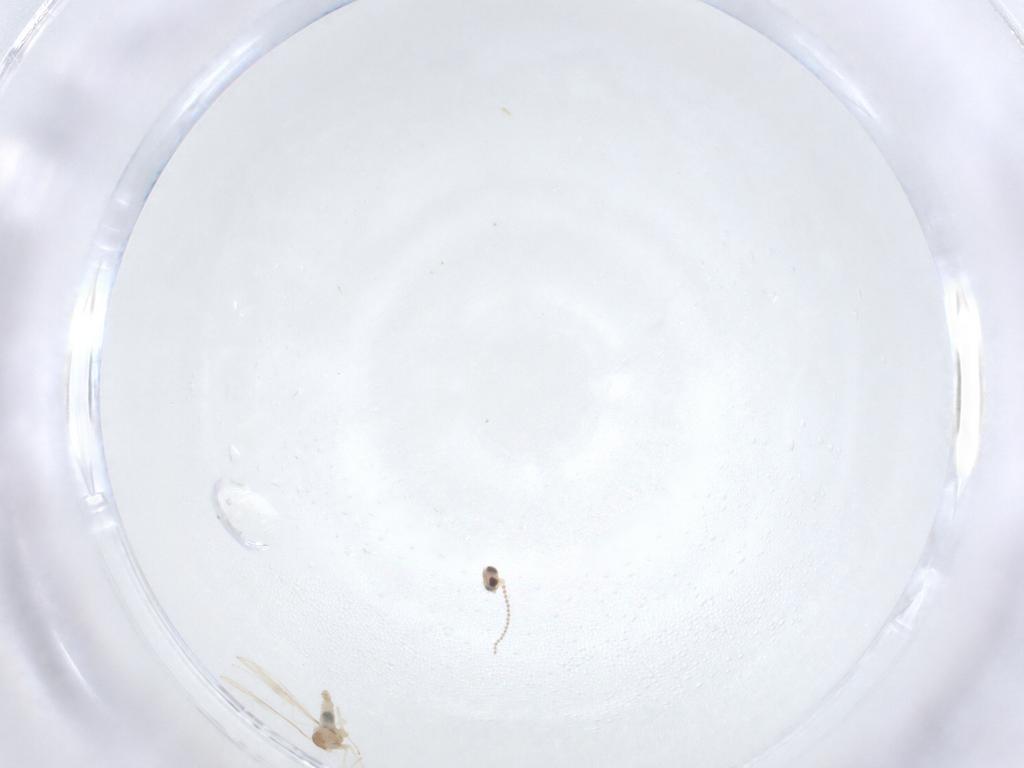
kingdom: Animalia
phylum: Arthropoda
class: Insecta
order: Diptera
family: Cecidomyiidae
